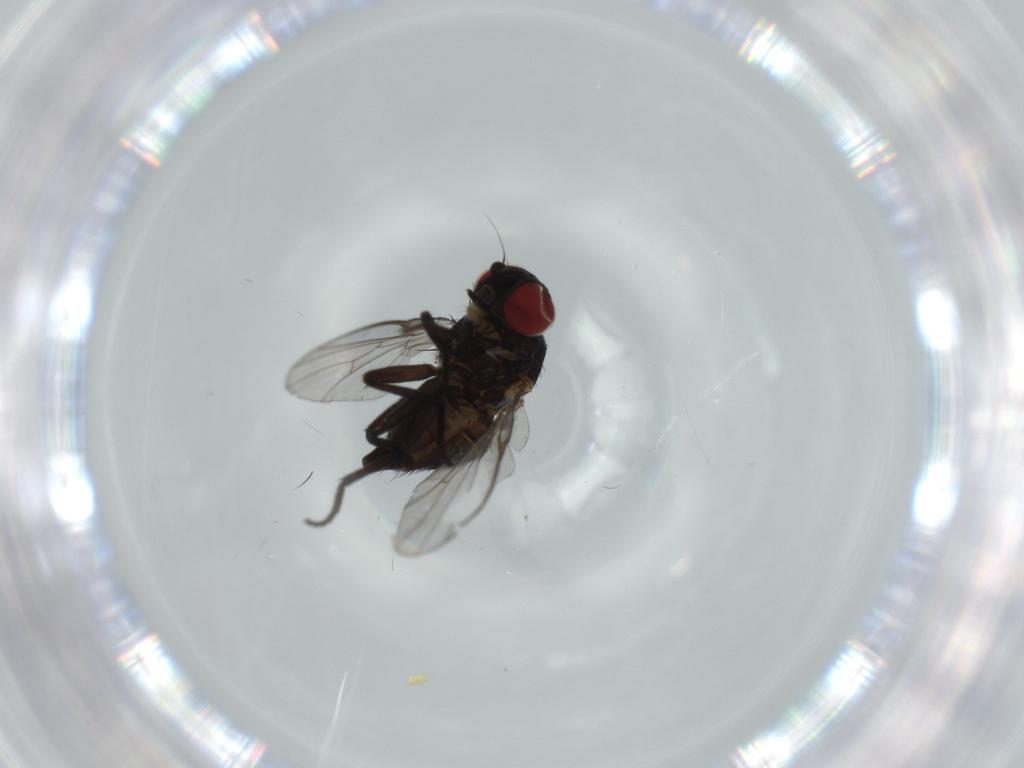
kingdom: Animalia
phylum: Arthropoda
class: Insecta
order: Diptera
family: Agromyzidae
